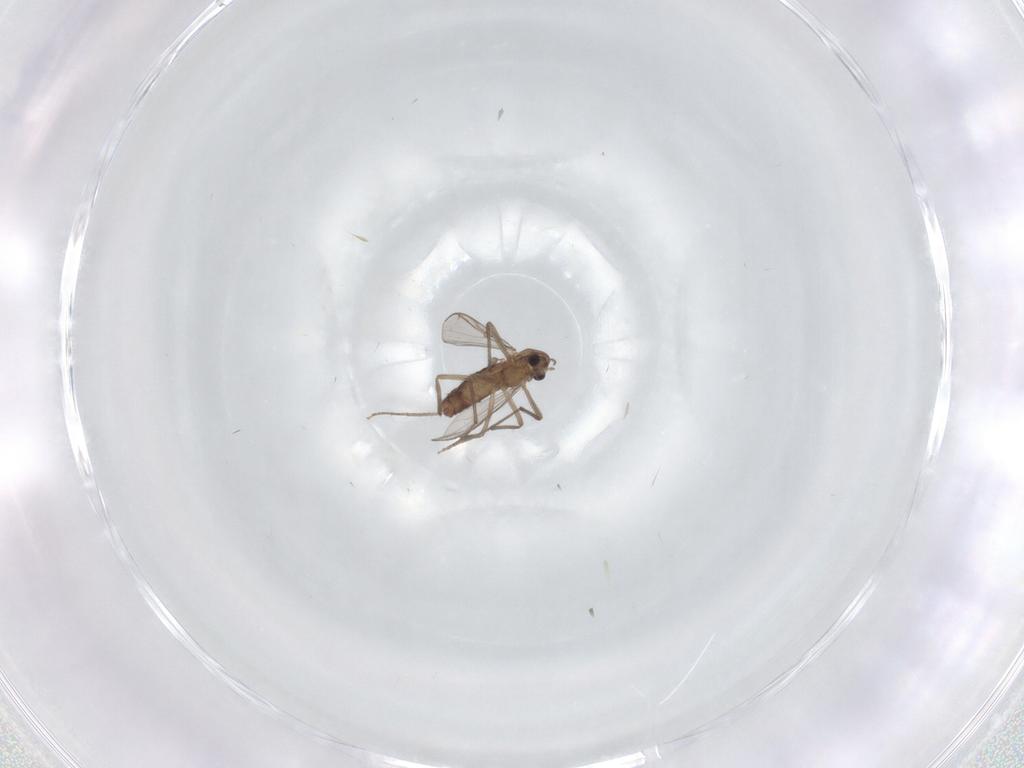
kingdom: Animalia
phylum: Arthropoda
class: Insecta
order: Diptera
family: Chironomidae
